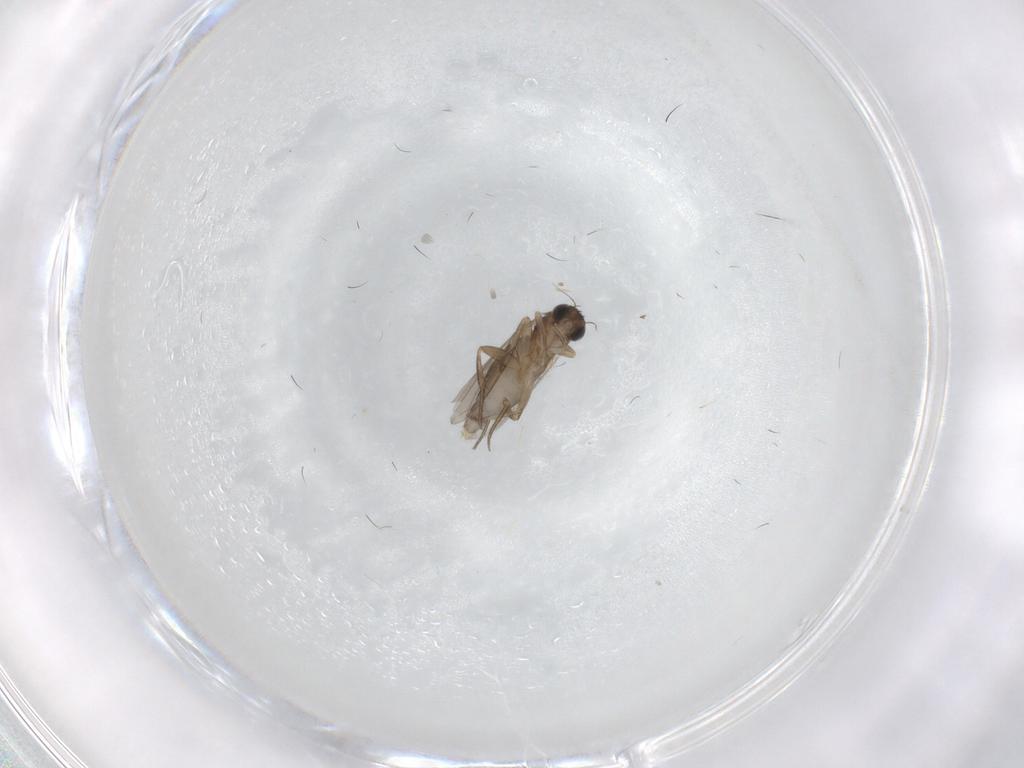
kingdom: Animalia
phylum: Arthropoda
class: Insecta
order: Diptera
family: Phoridae
